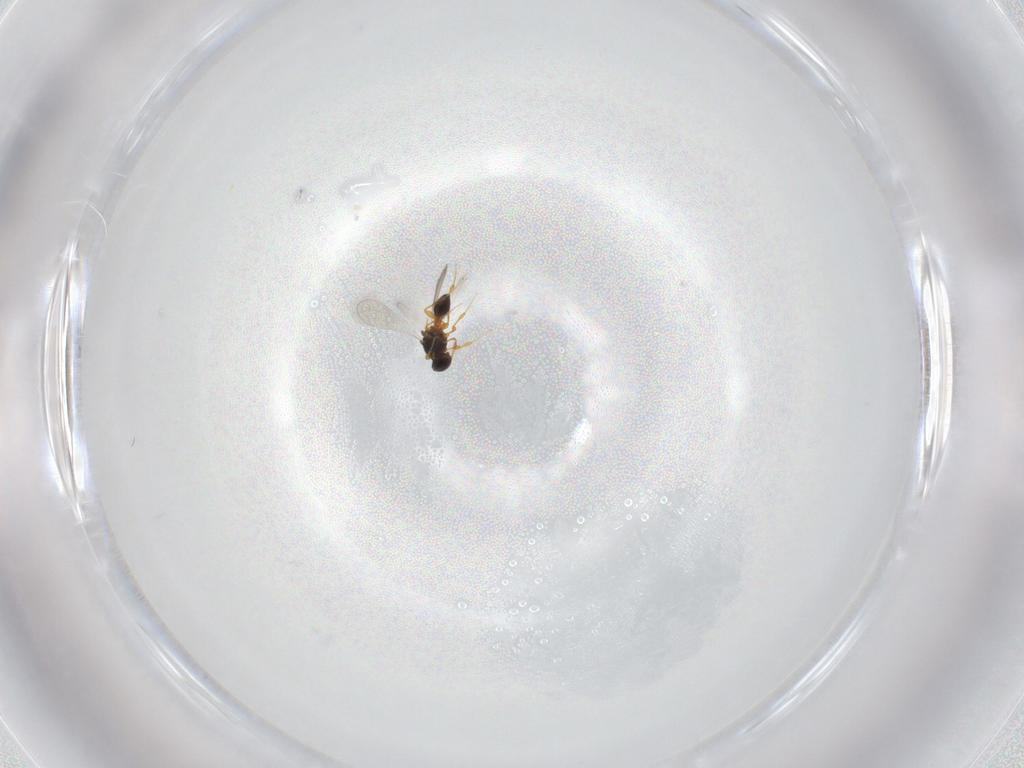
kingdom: Animalia
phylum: Arthropoda
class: Insecta
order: Hymenoptera
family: Platygastridae
